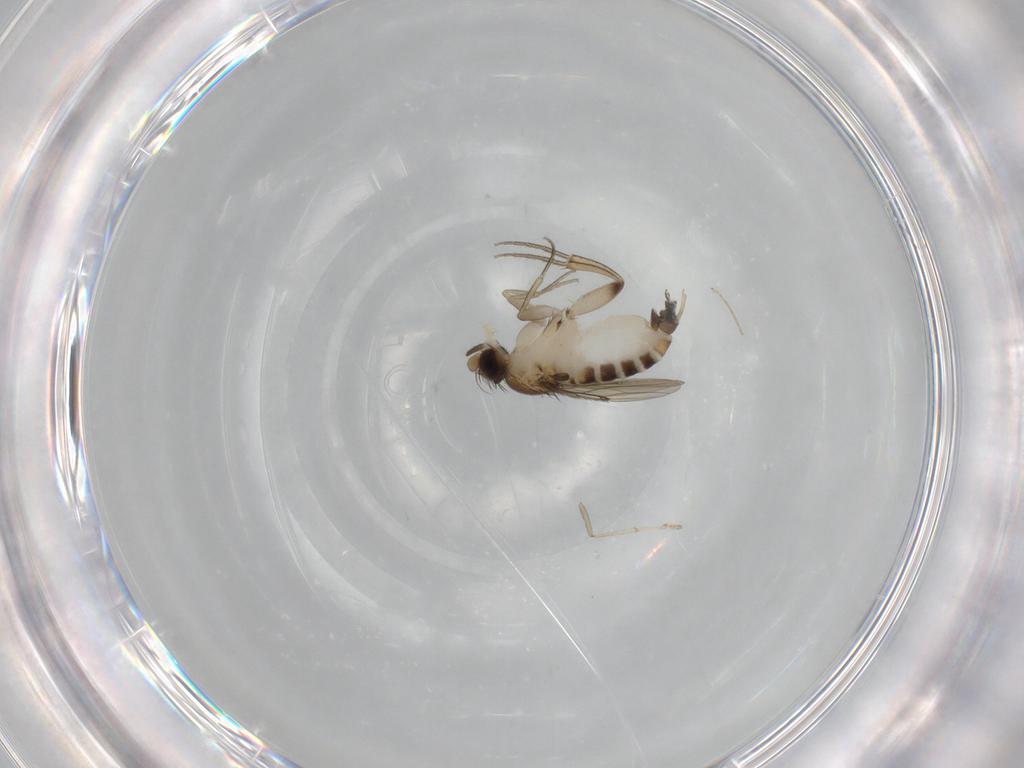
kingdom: Animalia
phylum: Arthropoda
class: Insecta
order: Diptera
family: Phoridae
